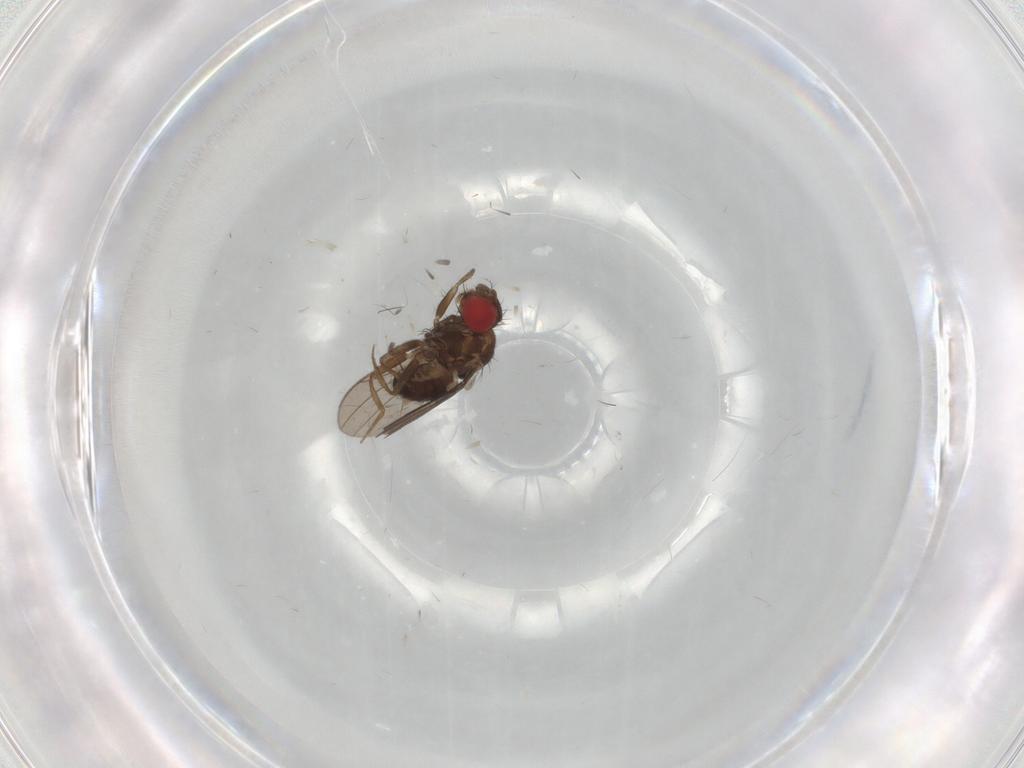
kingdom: Animalia
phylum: Arthropoda
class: Insecta
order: Diptera
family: Drosophilidae
